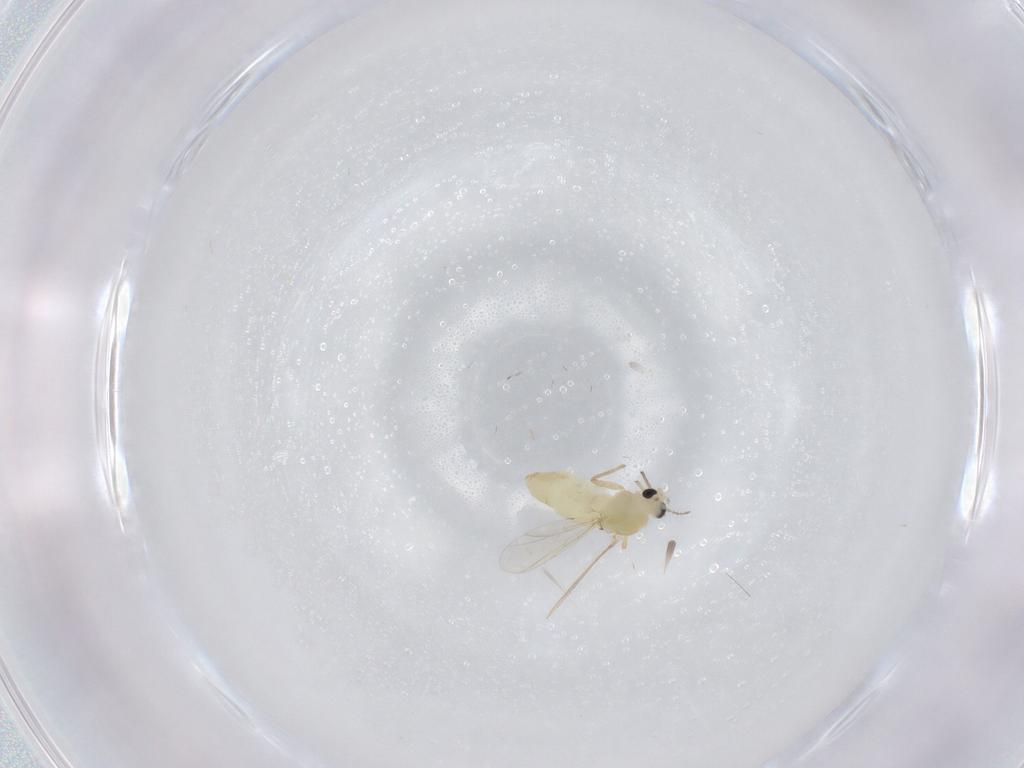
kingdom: Animalia
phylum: Arthropoda
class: Insecta
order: Diptera
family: Chironomidae
